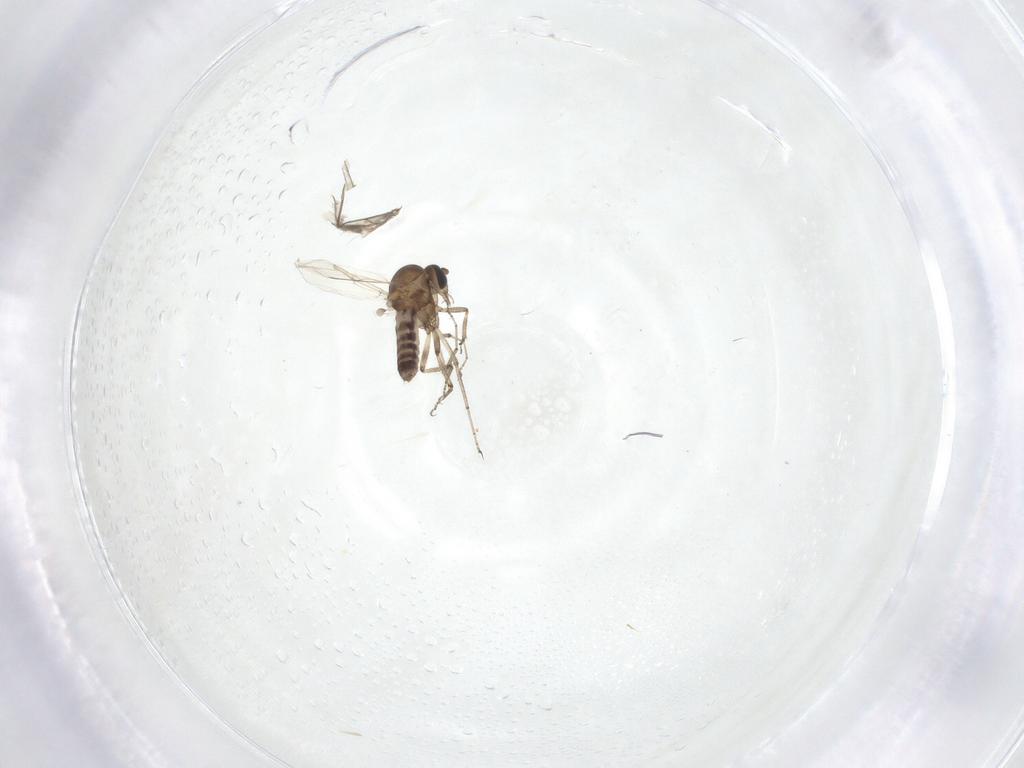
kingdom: Animalia
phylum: Arthropoda
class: Insecta
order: Diptera
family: Ceratopogonidae
